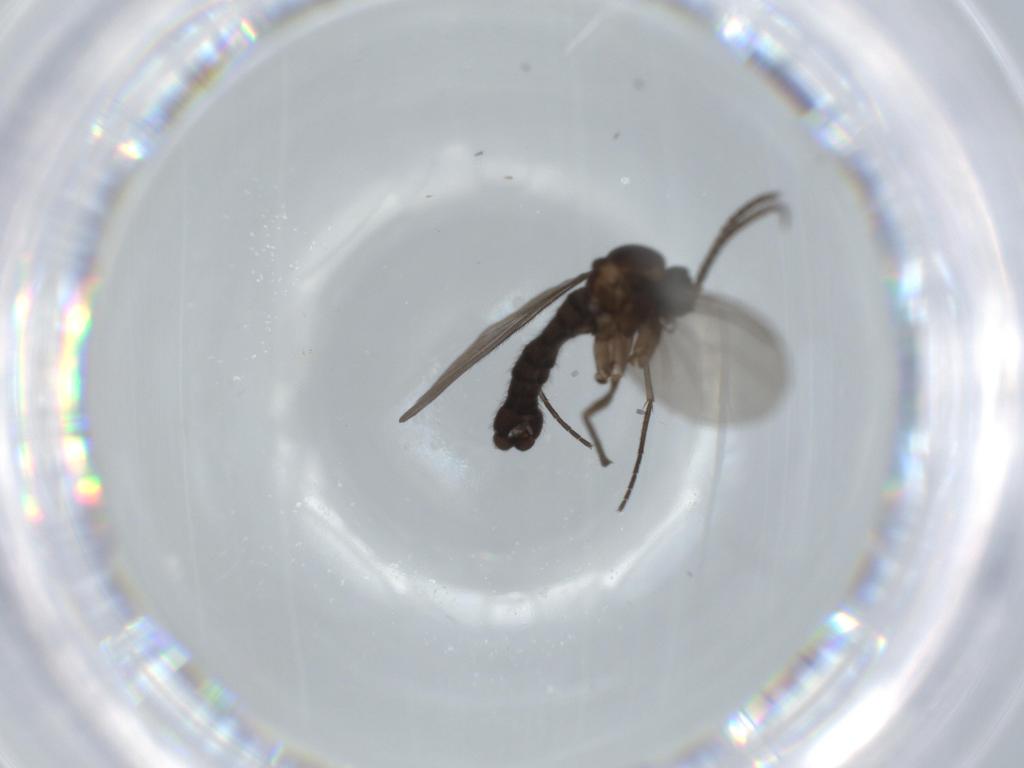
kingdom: Animalia
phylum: Arthropoda
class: Insecta
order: Diptera
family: Sciaridae
